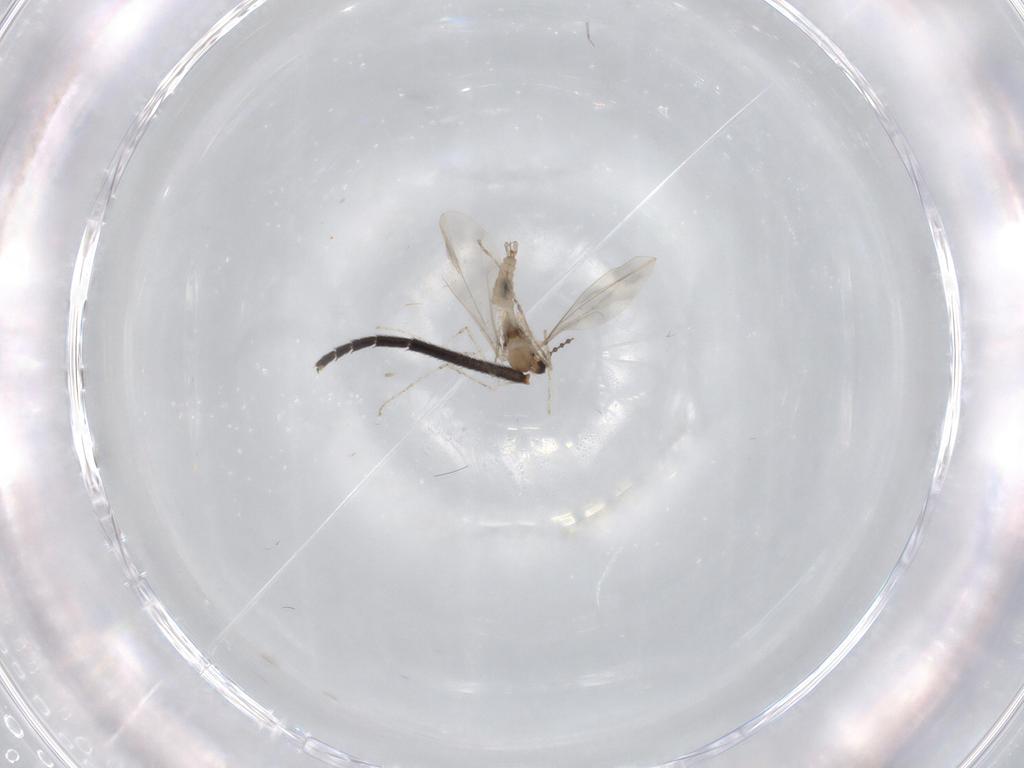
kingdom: Animalia
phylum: Arthropoda
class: Insecta
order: Diptera
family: Cecidomyiidae
